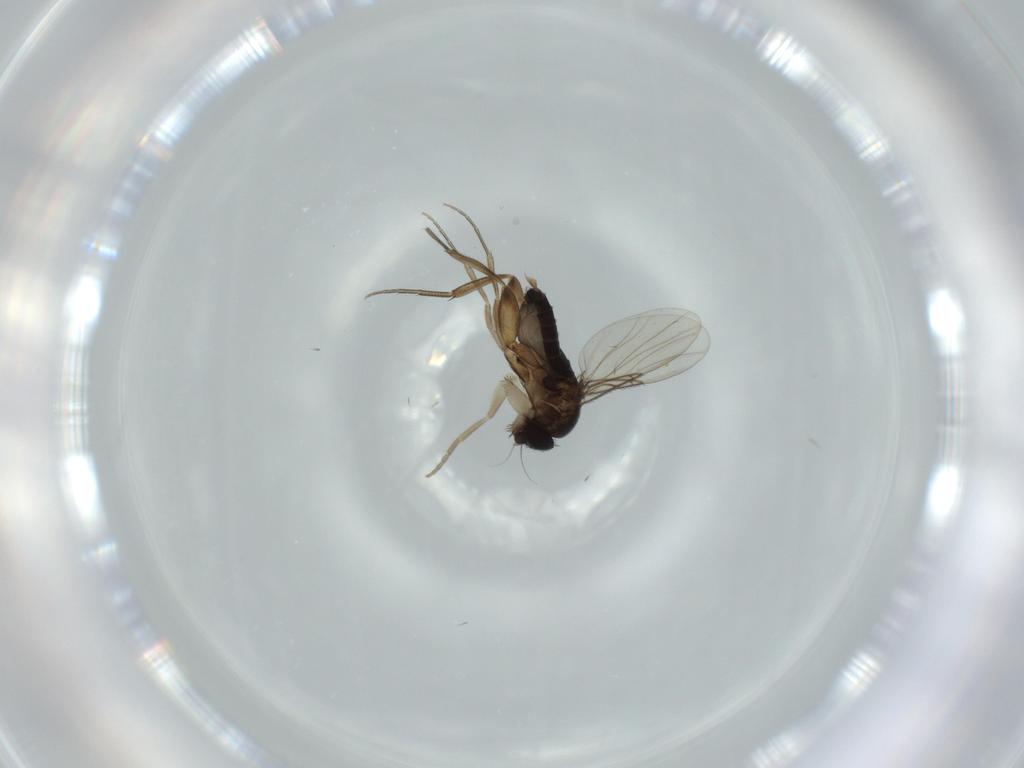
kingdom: Animalia
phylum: Arthropoda
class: Insecta
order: Diptera
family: Phoridae
